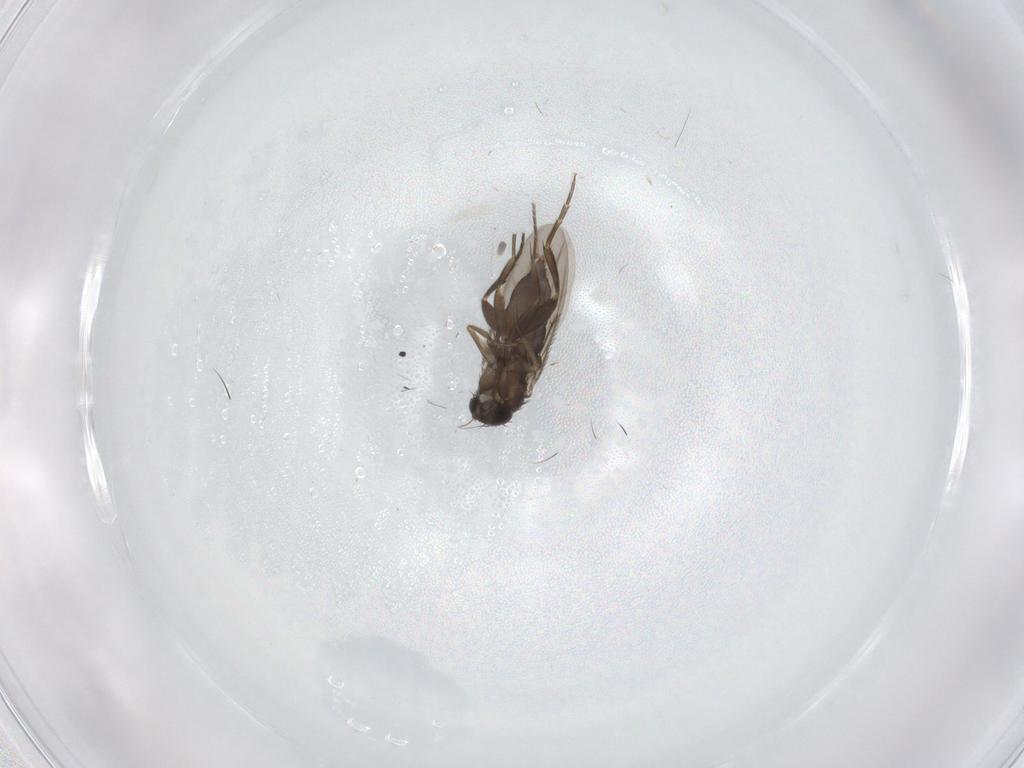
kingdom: Animalia
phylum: Arthropoda
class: Insecta
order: Diptera
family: Phoridae
